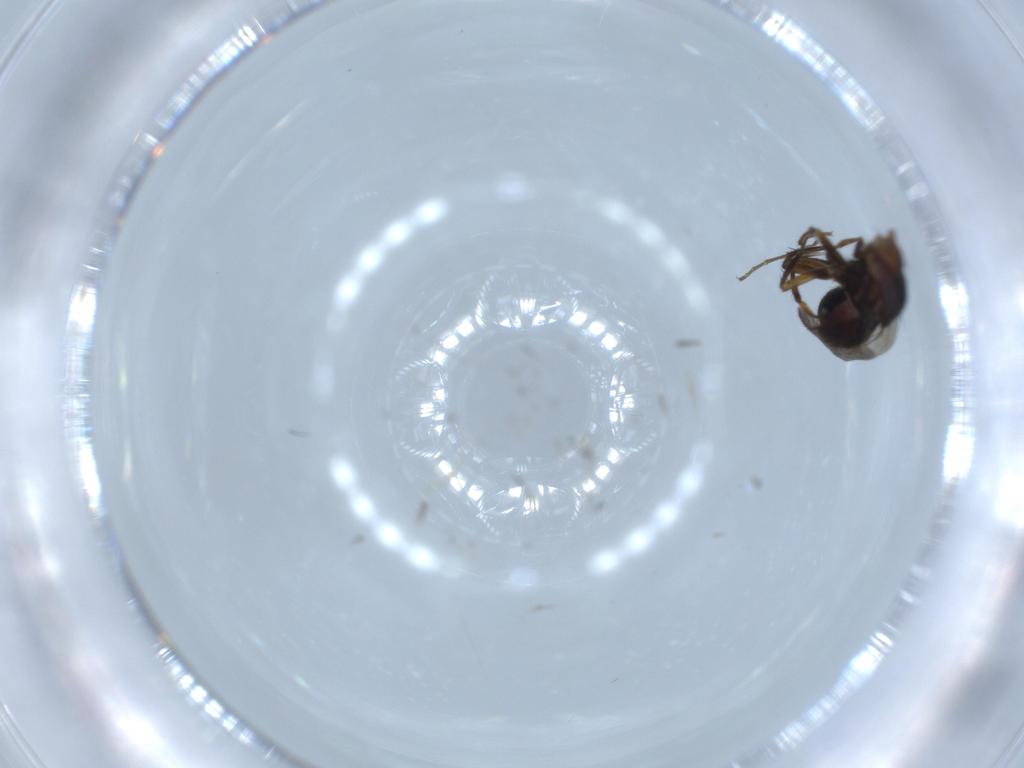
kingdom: Animalia
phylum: Arthropoda
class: Insecta
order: Diptera
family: Sphaeroceridae
